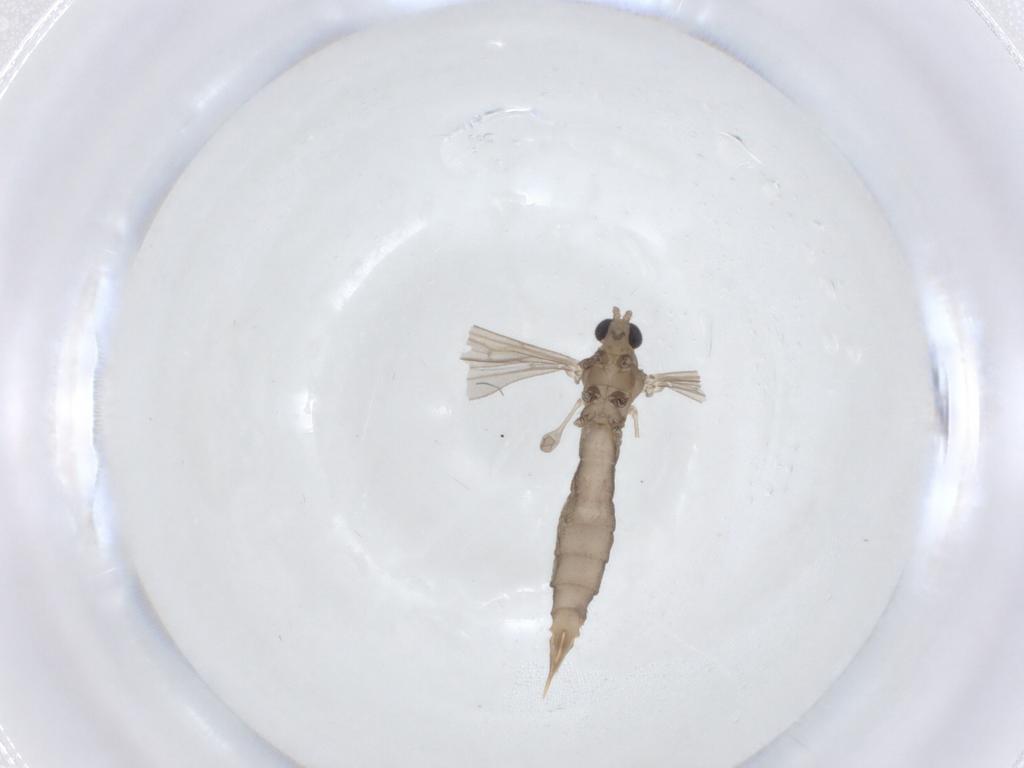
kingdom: Animalia
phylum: Arthropoda
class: Insecta
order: Diptera
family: Limoniidae
